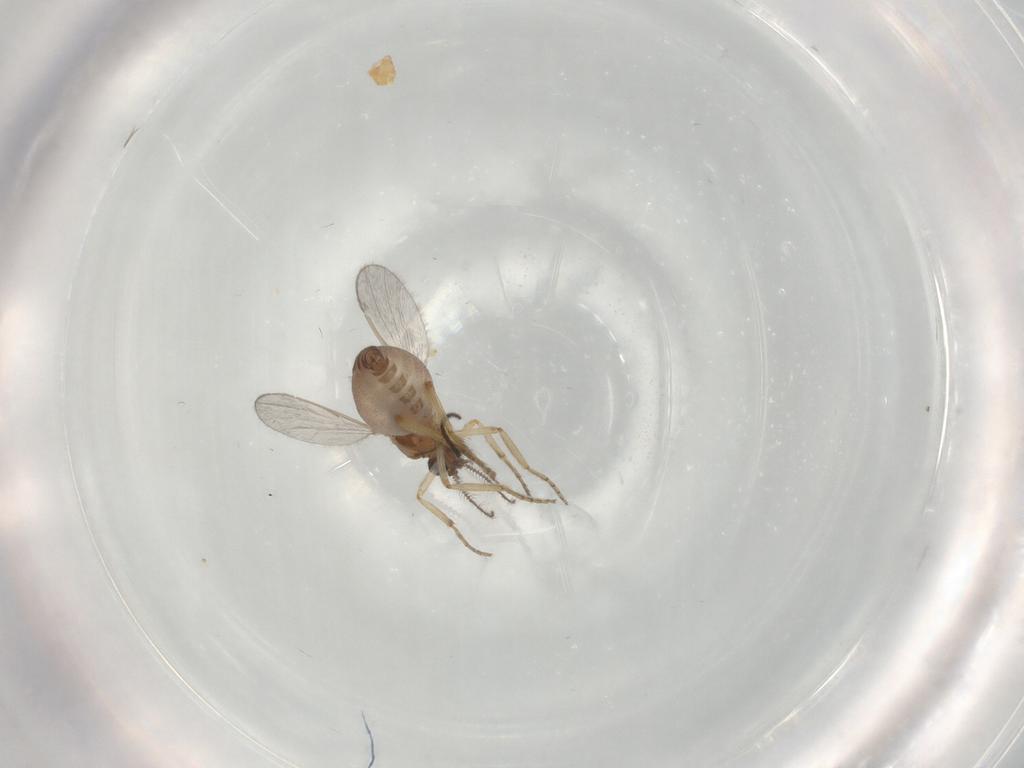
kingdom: Animalia
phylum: Arthropoda
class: Insecta
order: Diptera
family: Ceratopogonidae
